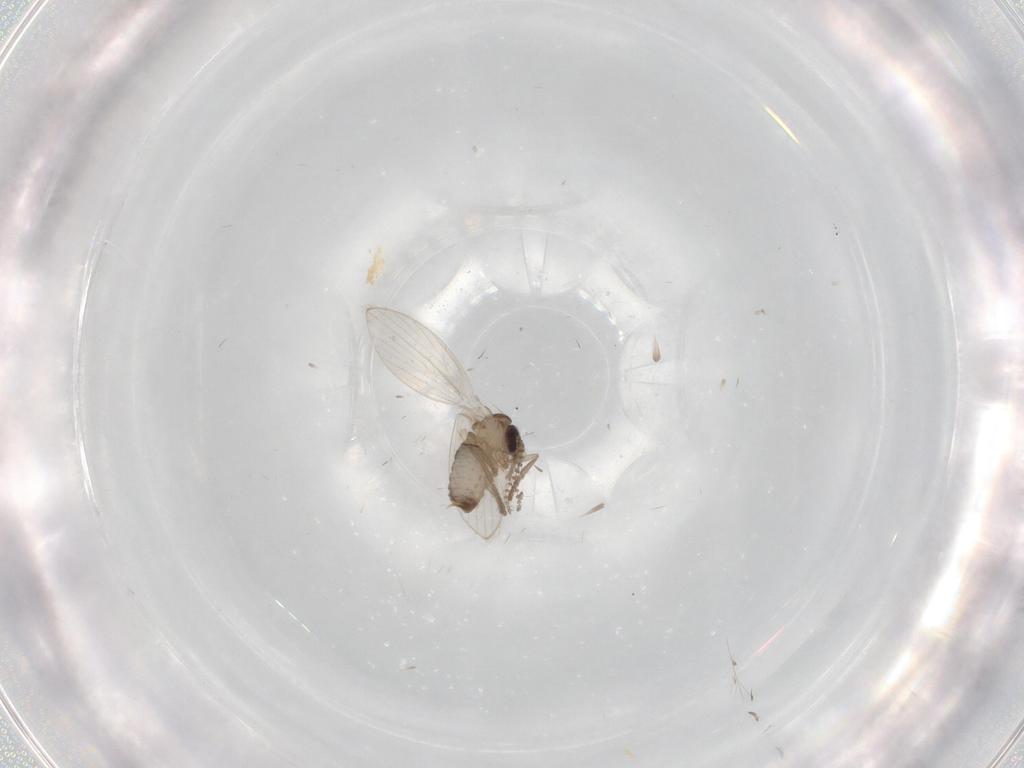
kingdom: Animalia
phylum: Arthropoda
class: Insecta
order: Diptera
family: Psychodidae
